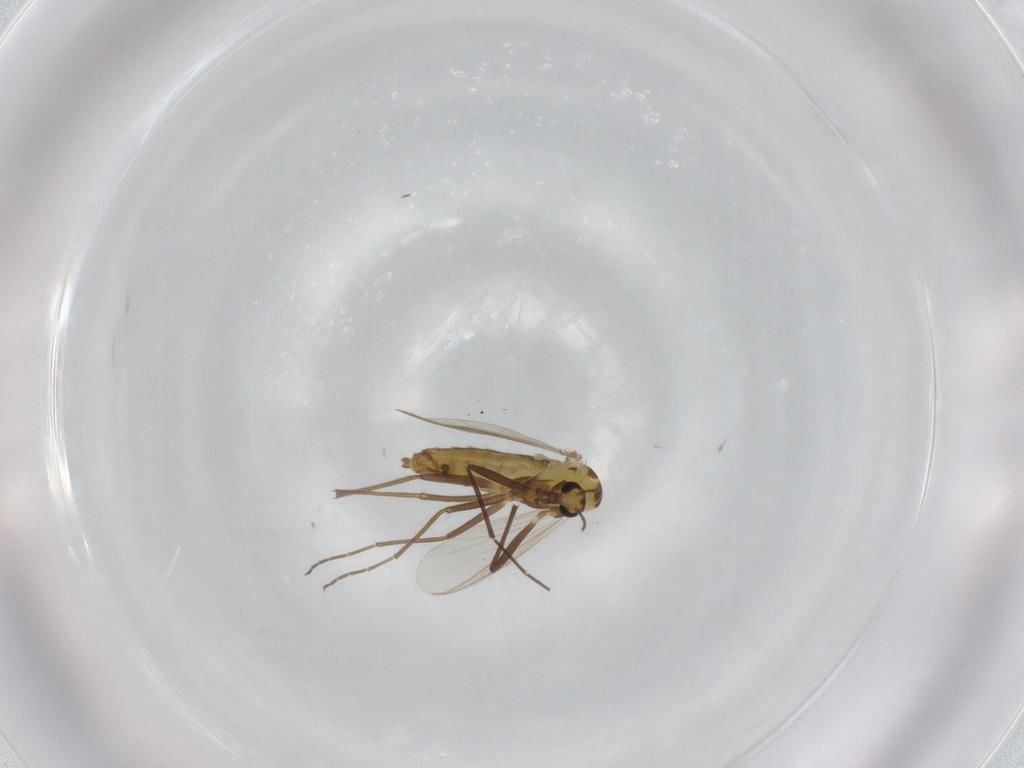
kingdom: Animalia
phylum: Arthropoda
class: Insecta
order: Diptera
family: Chironomidae
